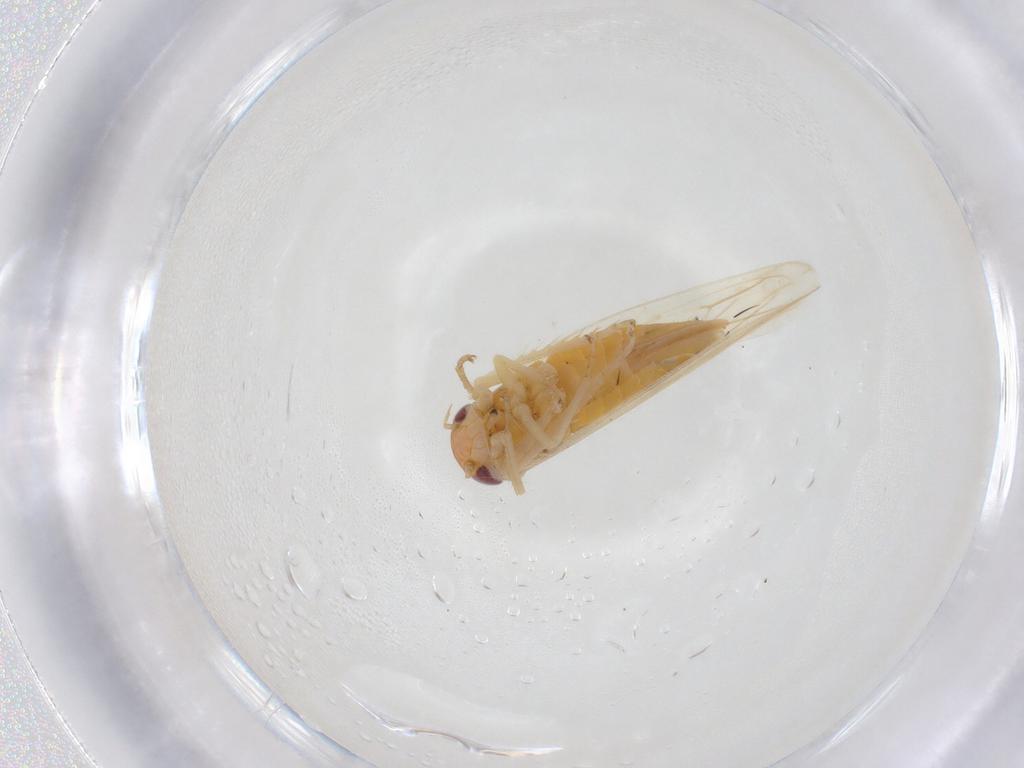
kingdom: Animalia
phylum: Arthropoda
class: Insecta
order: Hemiptera
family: Cicadellidae
